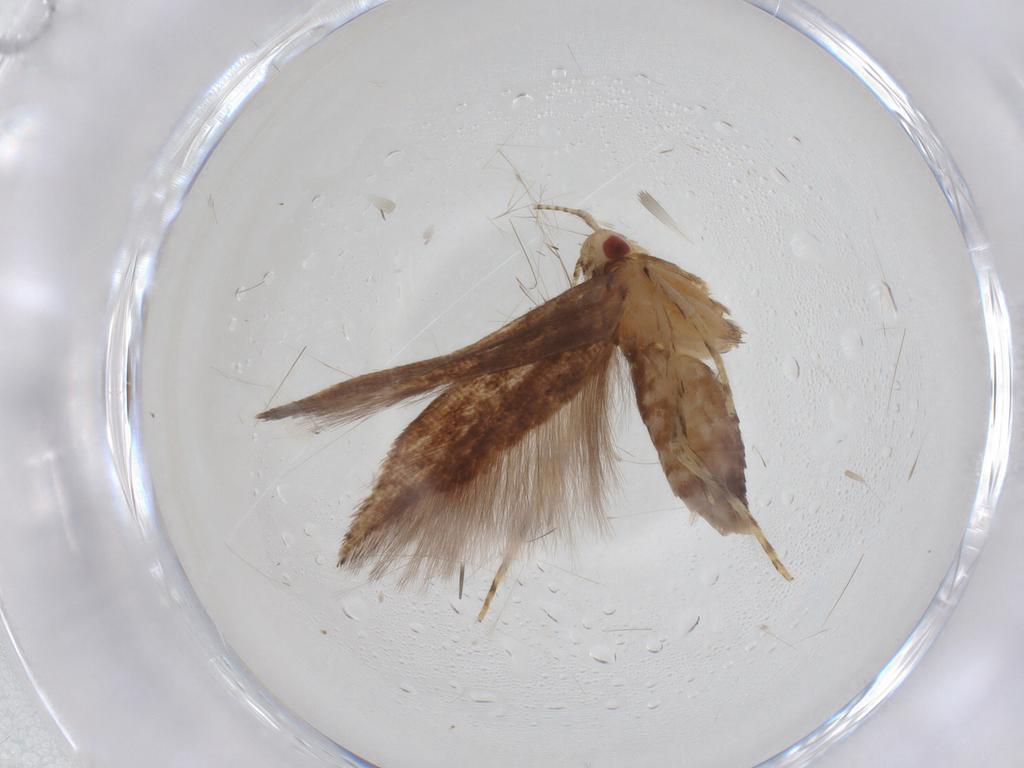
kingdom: Animalia
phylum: Arthropoda
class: Insecta
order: Lepidoptera
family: Cosmopterigidae
